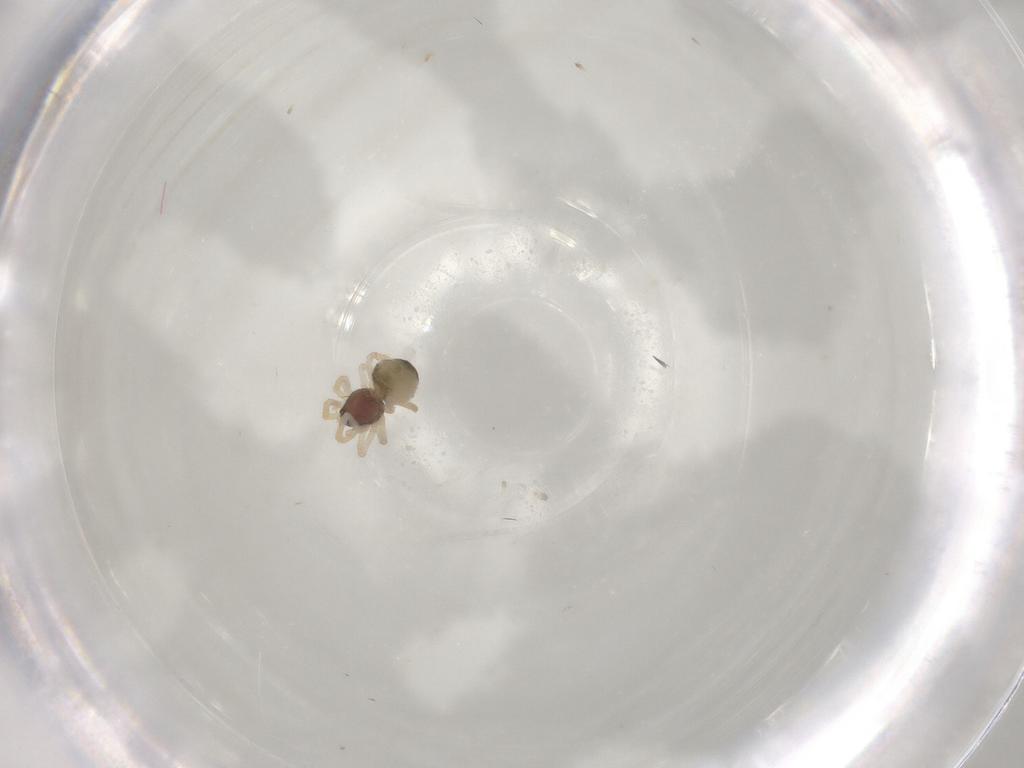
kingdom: Animalia
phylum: Arthropoda
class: Arachnida
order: Araneae
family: Theridiidae
